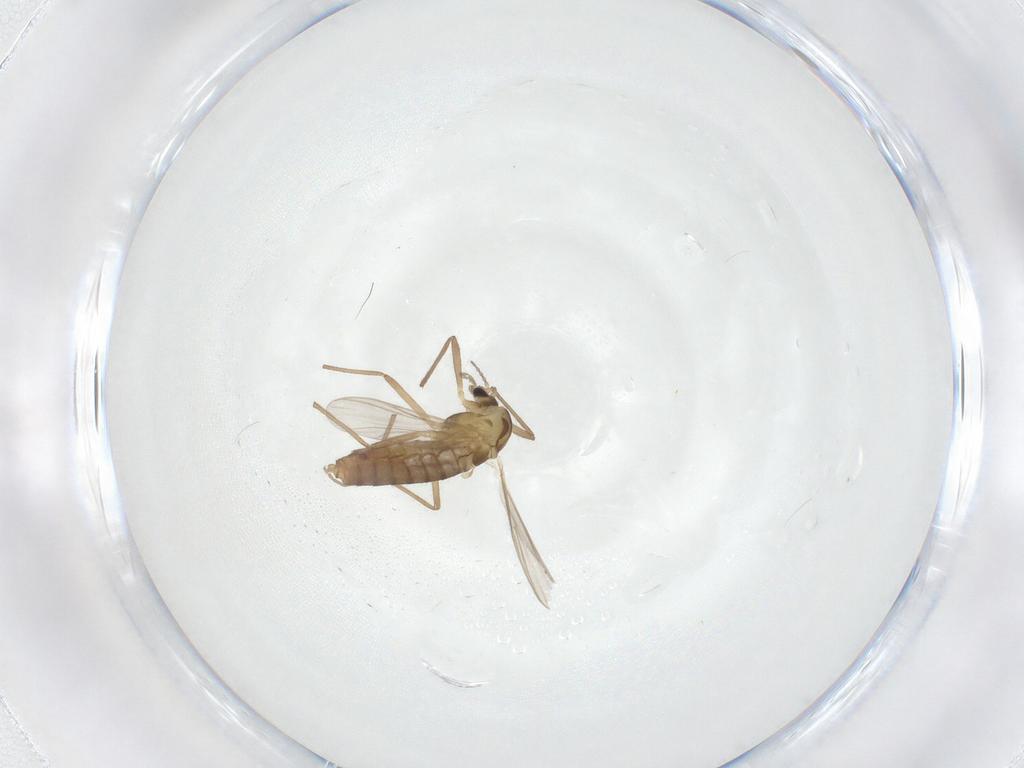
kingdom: Animalia
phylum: Arthropoda
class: Insecta
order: Diptera
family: Chironomidae
